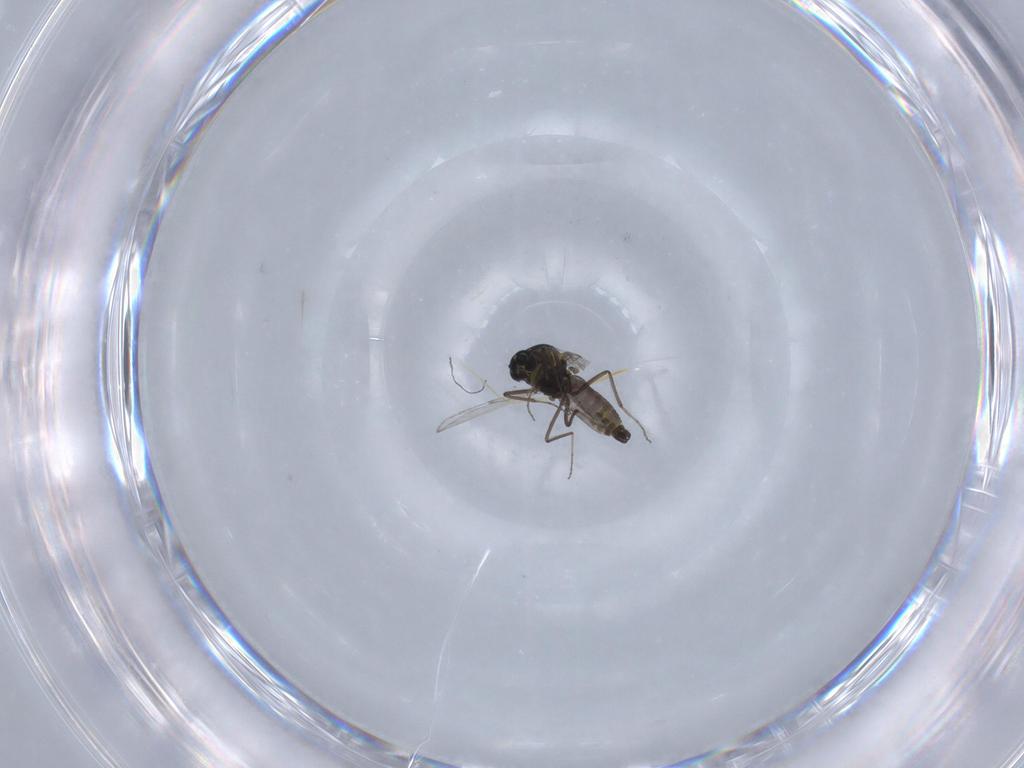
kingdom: Animalia
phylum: Arthropoda
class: Insecta
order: Diptera
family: Ceratopogonidae
